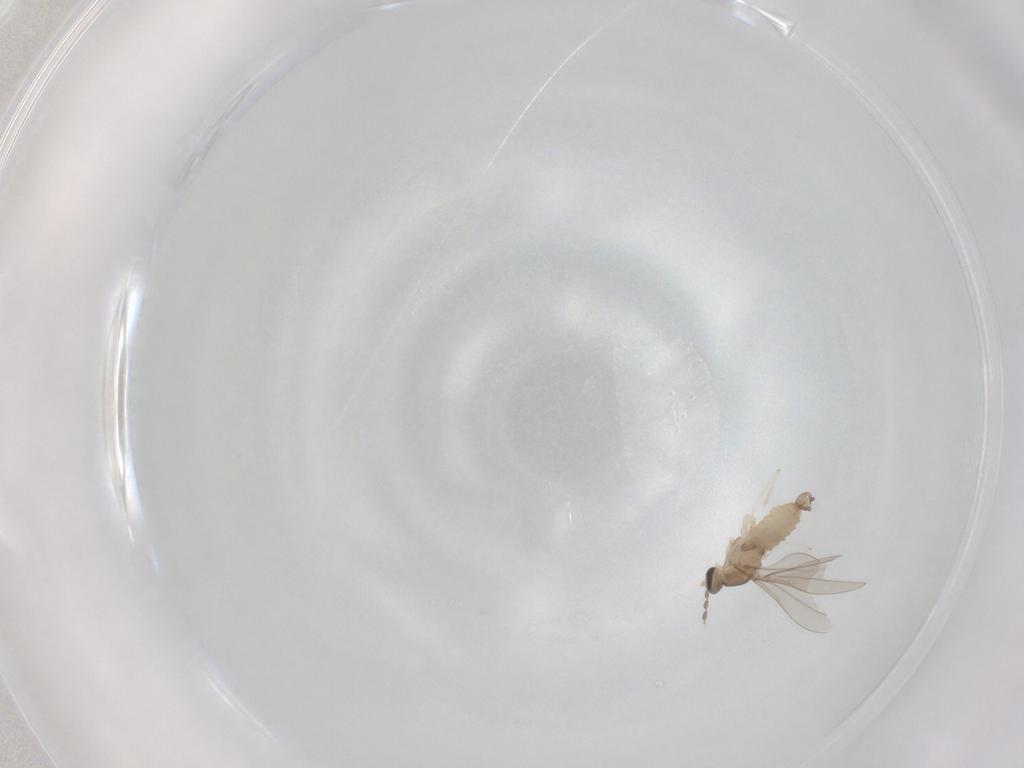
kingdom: Animalia
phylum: Arthropoda
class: Insecta
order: Diptera
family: Cecidomyiidae
